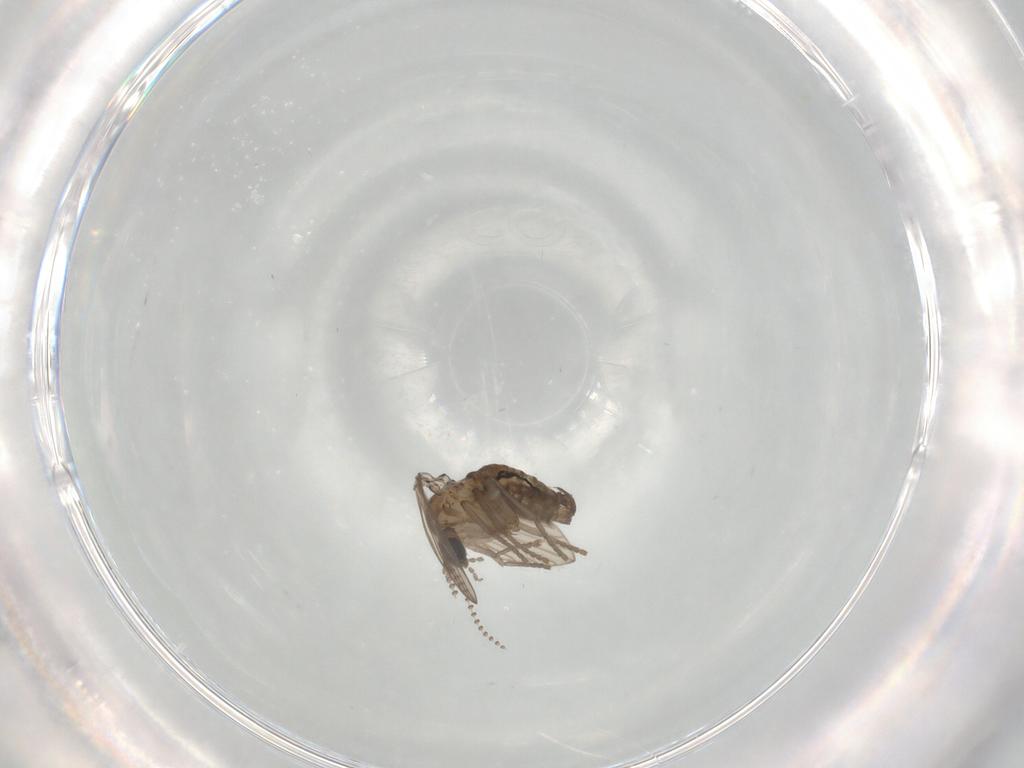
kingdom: Animalia
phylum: Arthropoda
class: Insecta
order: Diptera
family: Psychodidae
